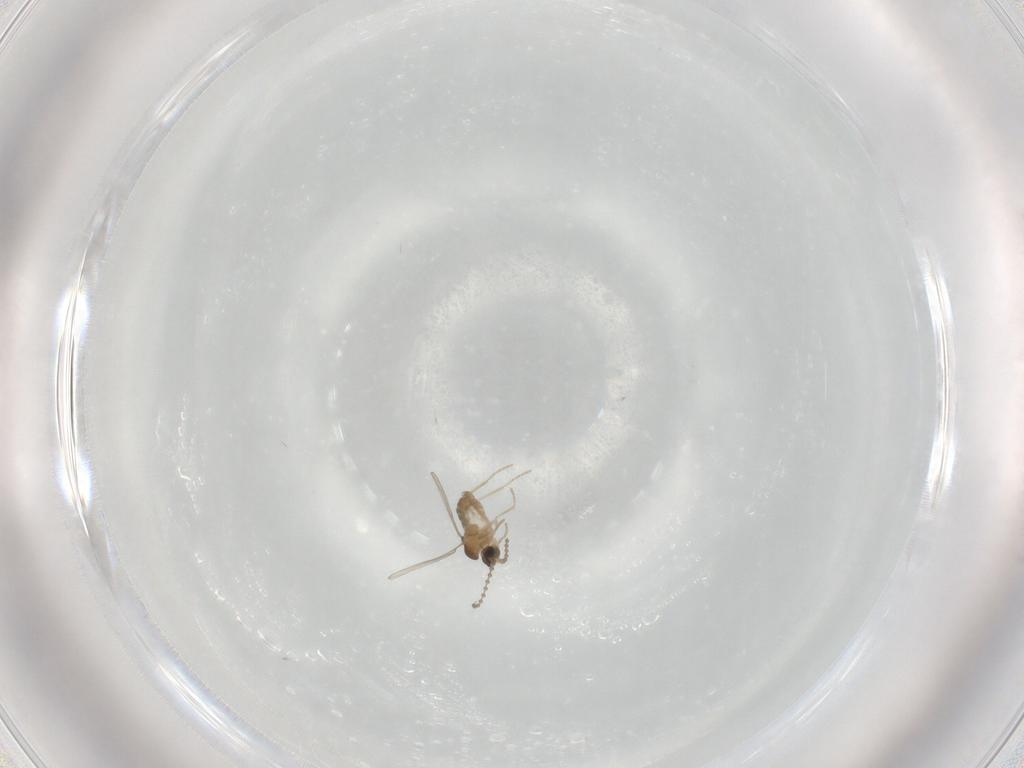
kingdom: Animalia
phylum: Arthropoda
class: Insecta
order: Diptera
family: Cecidomyiidae
